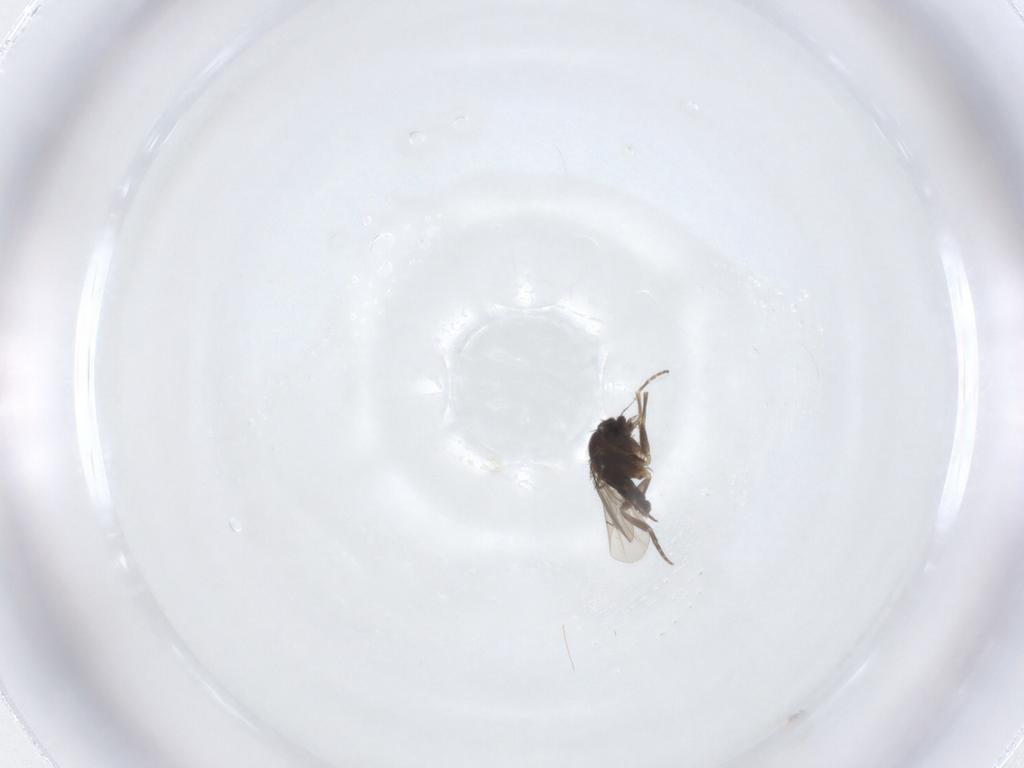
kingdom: Animalia
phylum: Arthropoda
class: Insecta
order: Diptera
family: Phoridae
